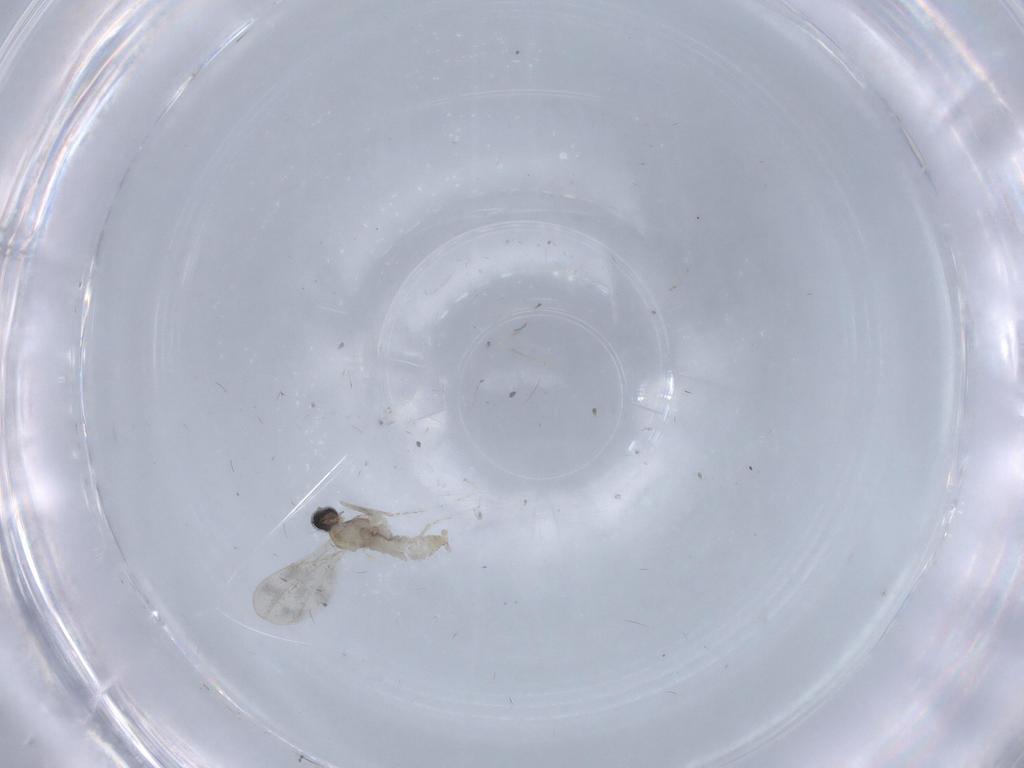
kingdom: Animalia
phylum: Arthropoda
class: Insecta
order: Diptera
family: Cecidomyiidae
